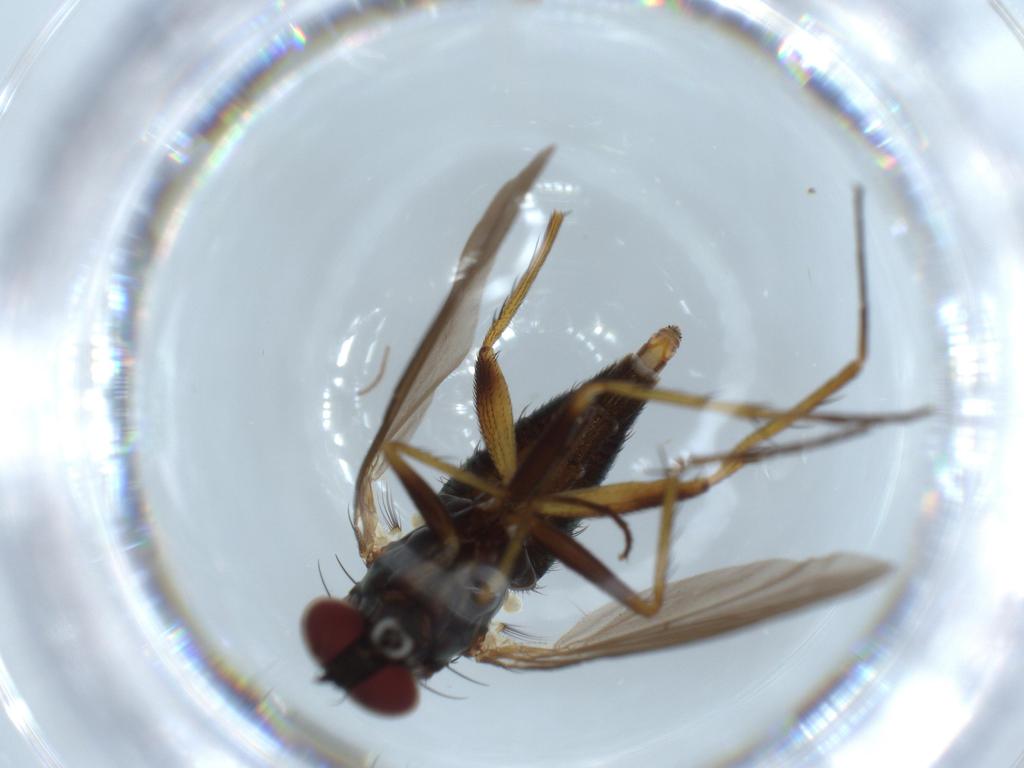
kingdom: Animalia
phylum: Arthropoda
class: Insecta
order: Diptera
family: Dolichopodidae
